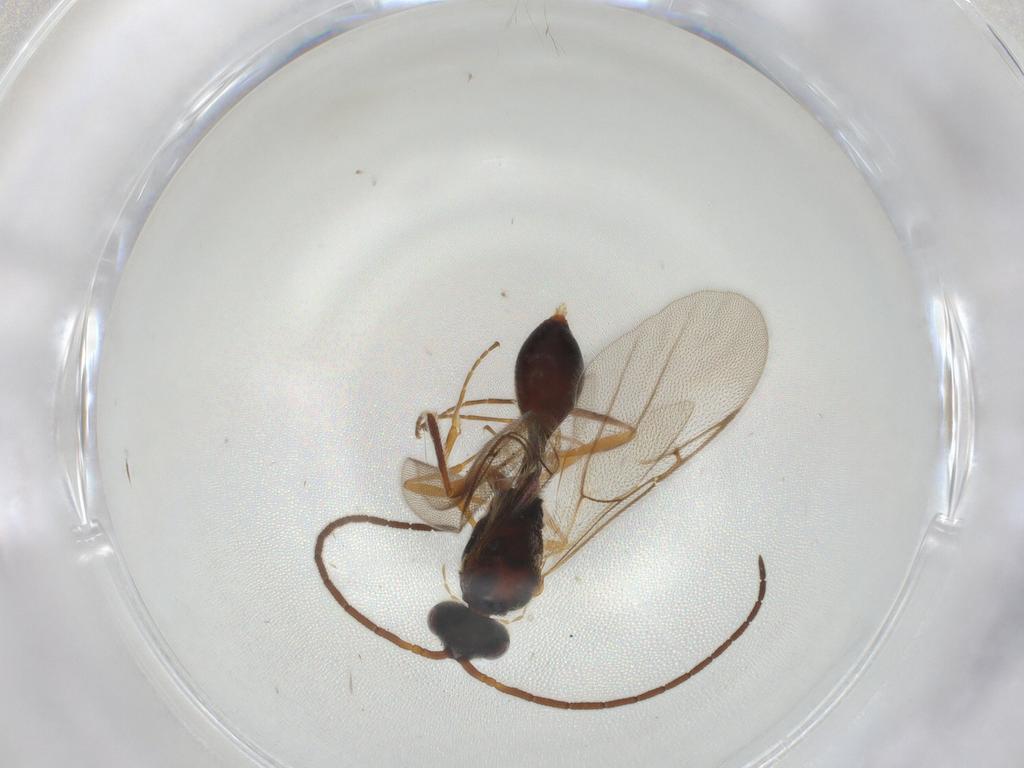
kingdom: Animalia
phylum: Arthropoda
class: Insecta
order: Hymenoptera
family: Diapriidae
